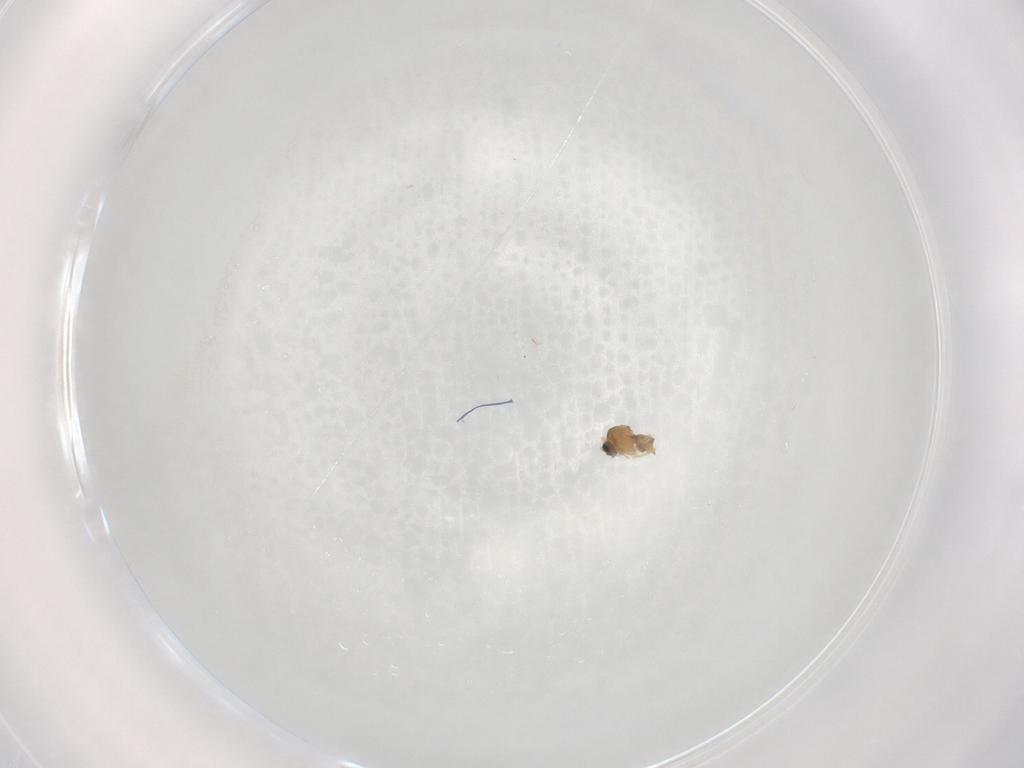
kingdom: Animalia
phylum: Arthropoda
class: Insecta
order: Diptera
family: Cecidomyiidae
